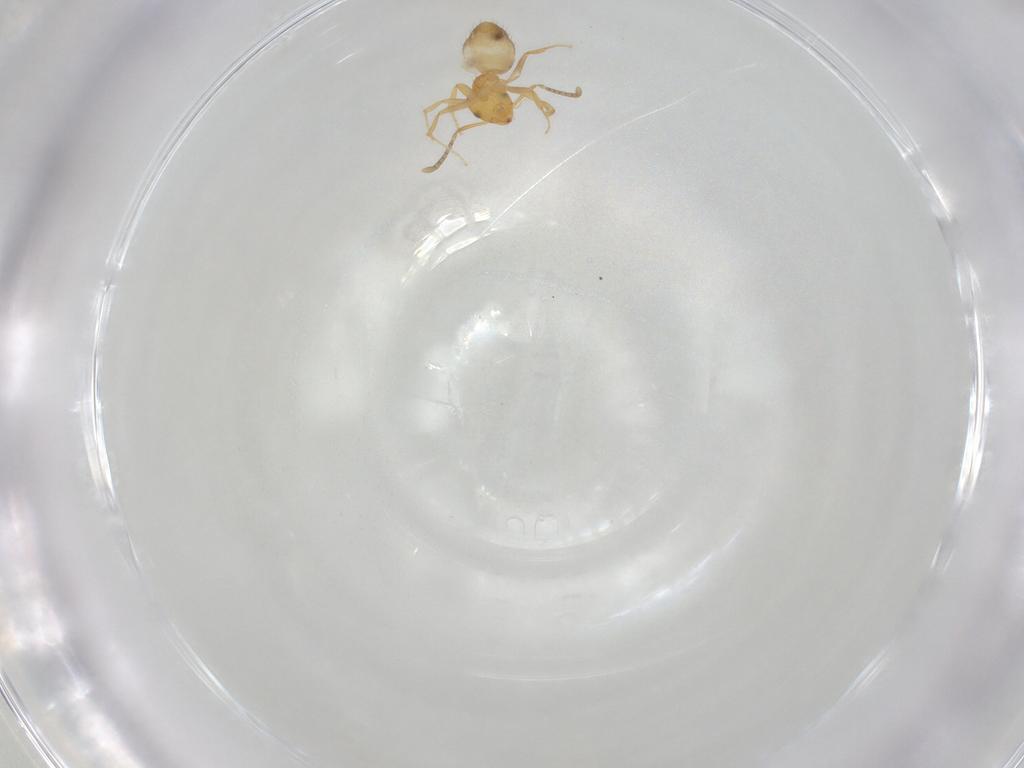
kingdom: Animalia
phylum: Arthropoda
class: Insecta
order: Hymenoptera
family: Formicidae
